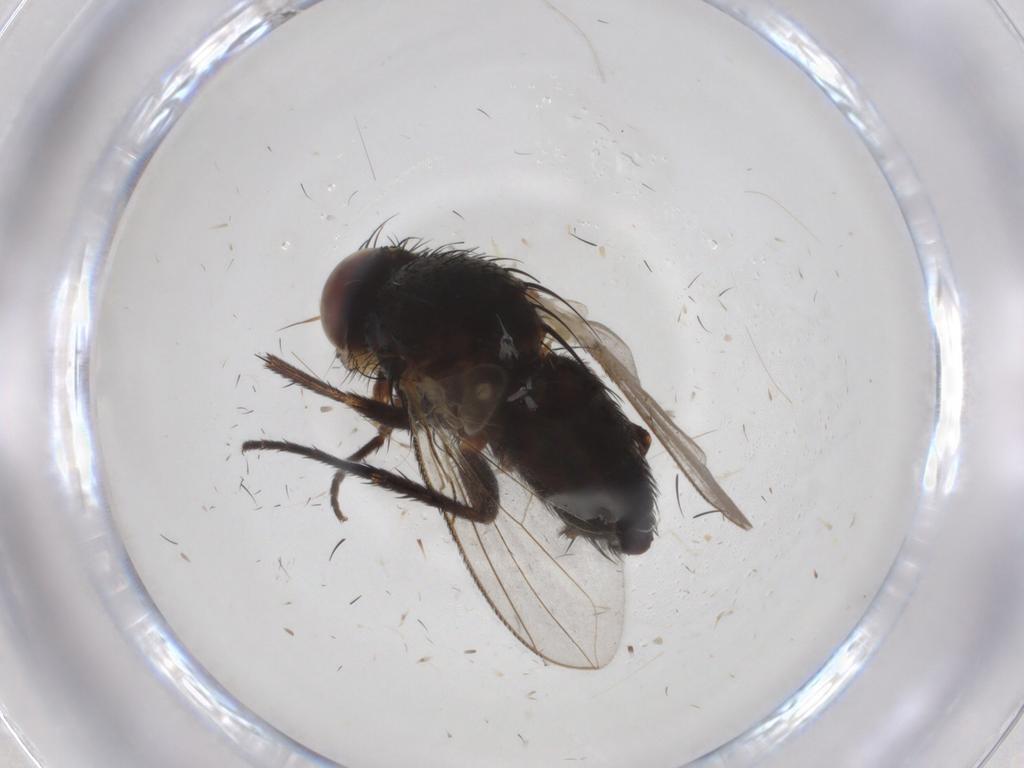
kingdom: Animalia
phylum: Arthropoda
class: Insecta
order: Diptera
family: Tachinidae
